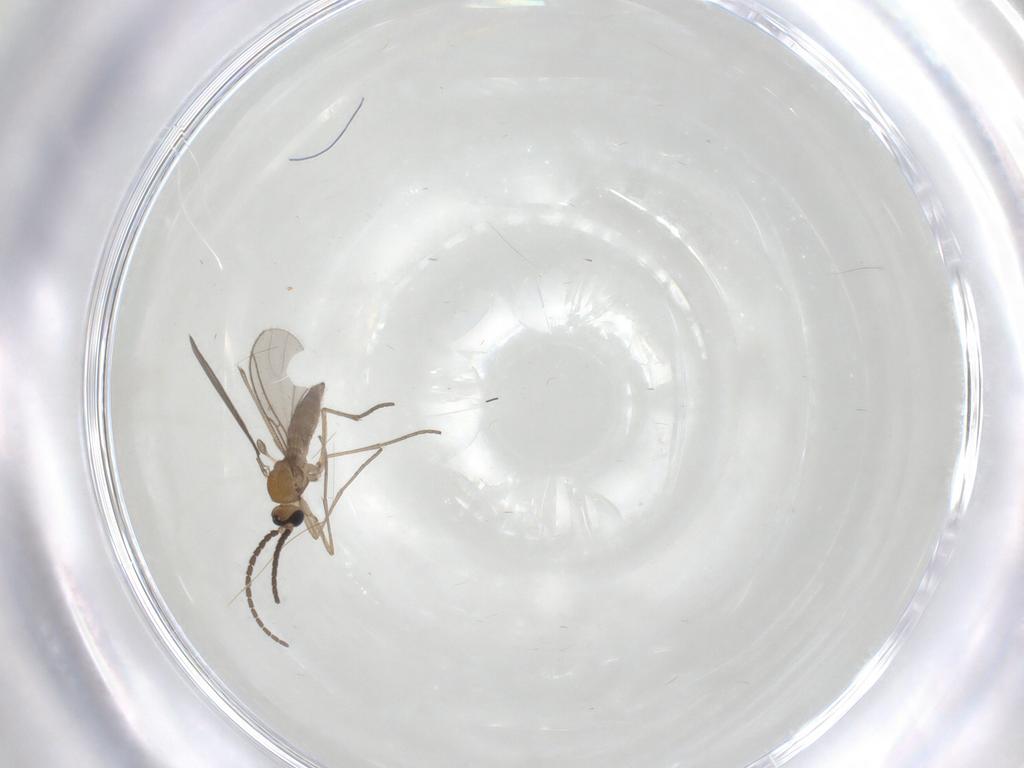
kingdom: Animalia
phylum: Arthropoda
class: Insecta
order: Diptera
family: Sciaridae
